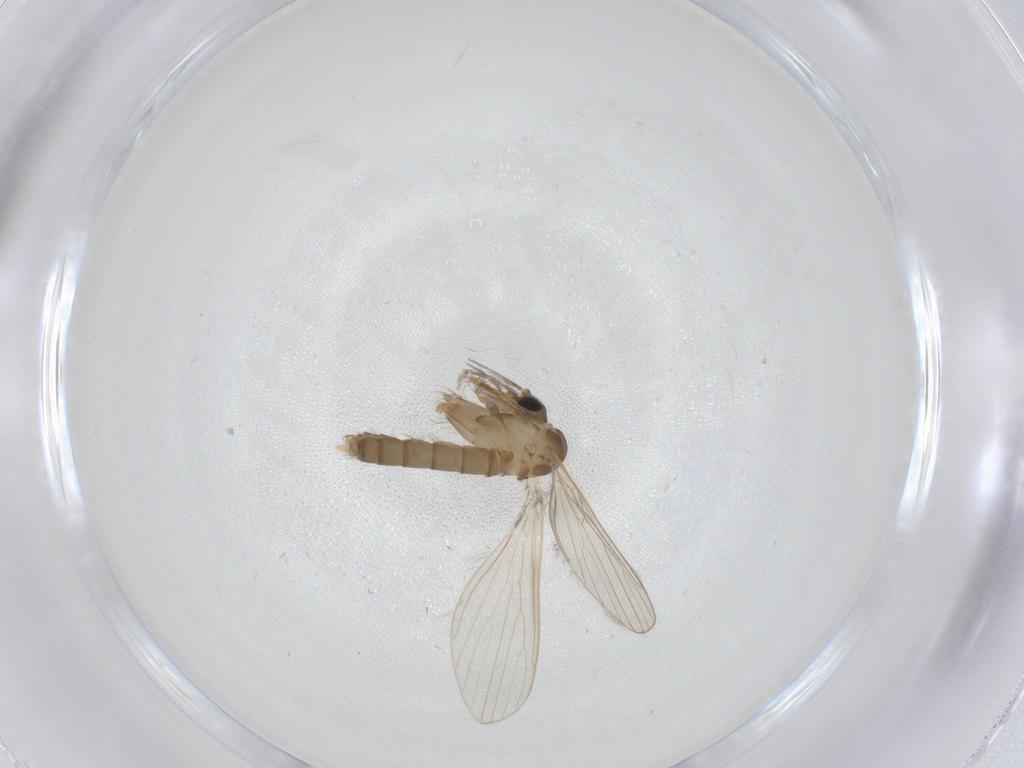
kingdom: Animalia
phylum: Arthropoda
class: Insecta
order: Diptera
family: Psychodidae
